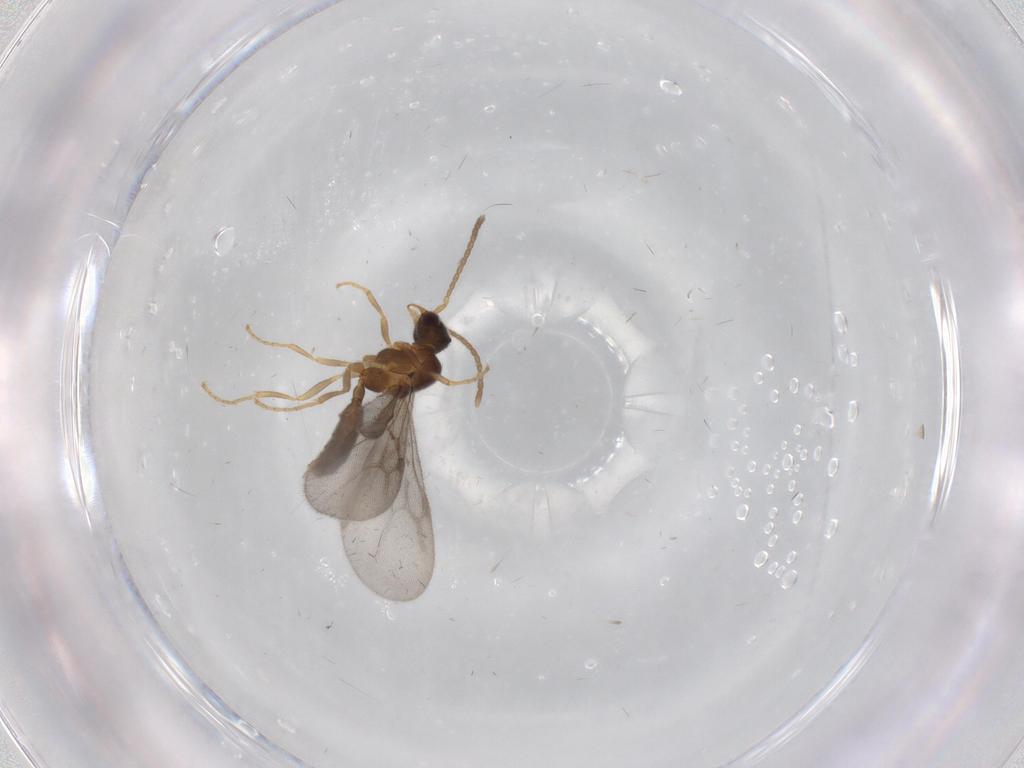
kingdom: Animalia
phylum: Arthropoda
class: Insecta
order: Hymenoptera
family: Formicidae
